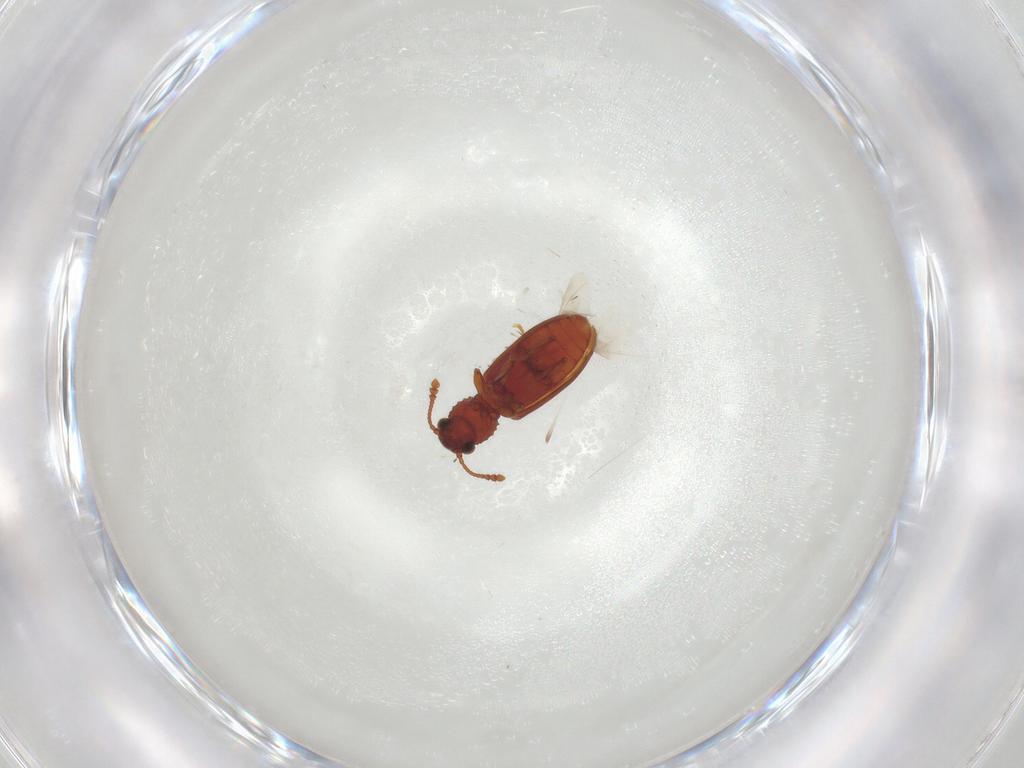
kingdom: Animalia
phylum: Arthropoda
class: Insecta
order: Coleoptera
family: Silvanidae
